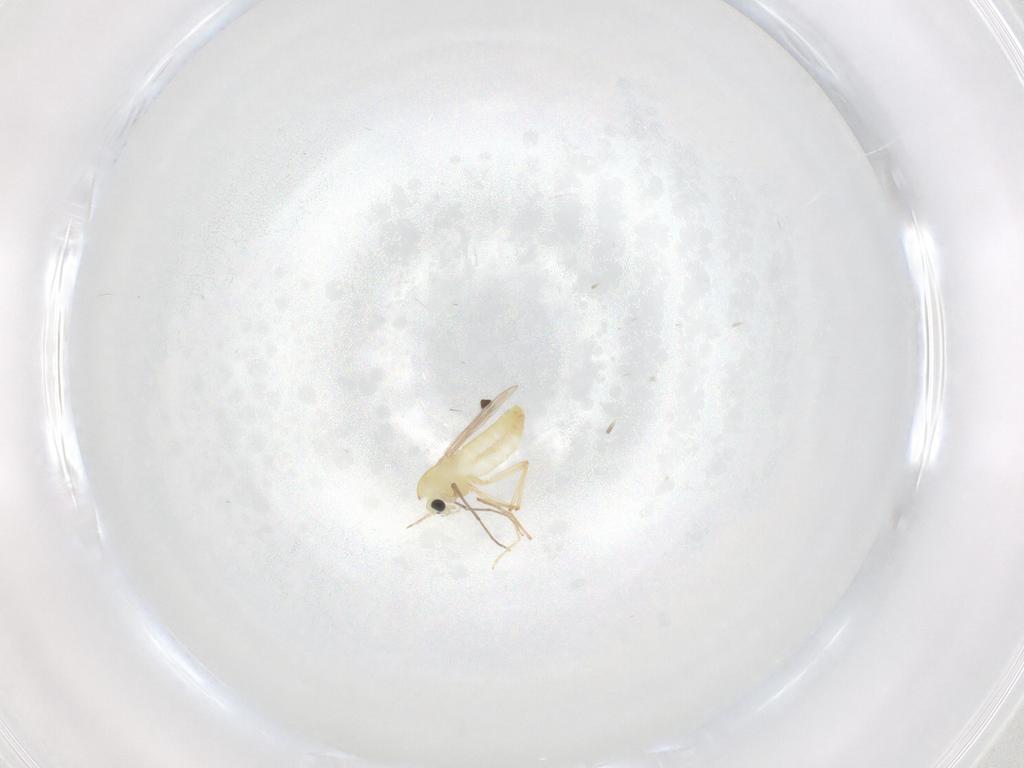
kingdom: Animalia
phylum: Arthropoda
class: Insecta
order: Diptera
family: Chironomidae
